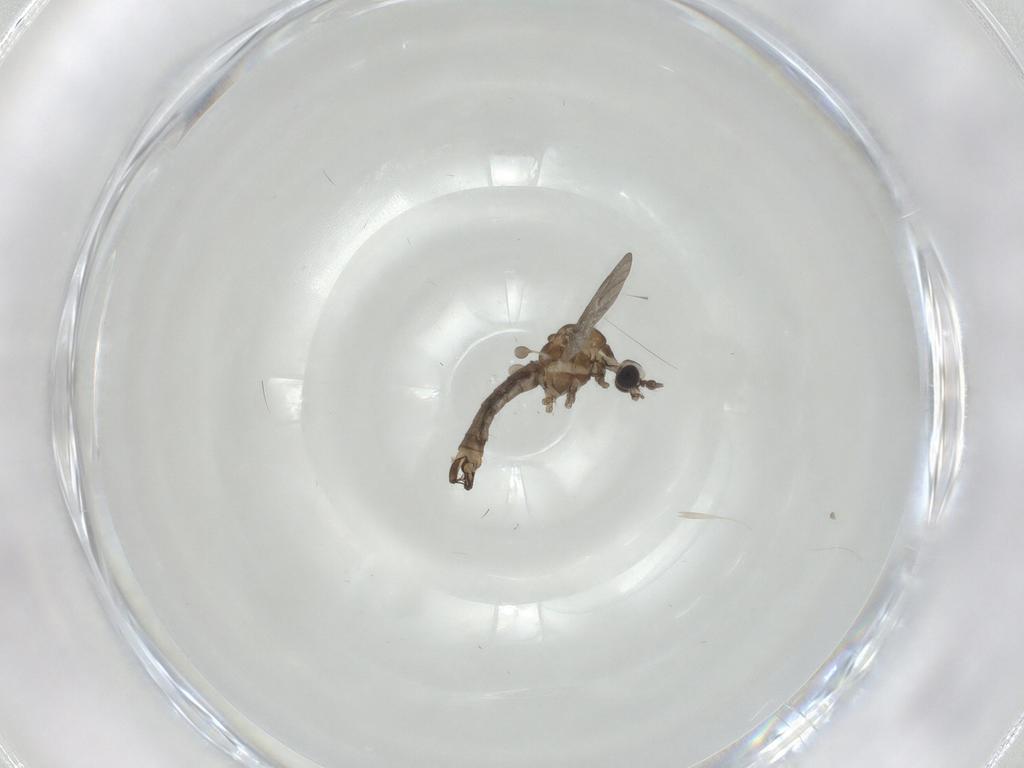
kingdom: Animalia
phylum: Arthropoda
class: Insecta
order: Diptera
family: Limoniidae
